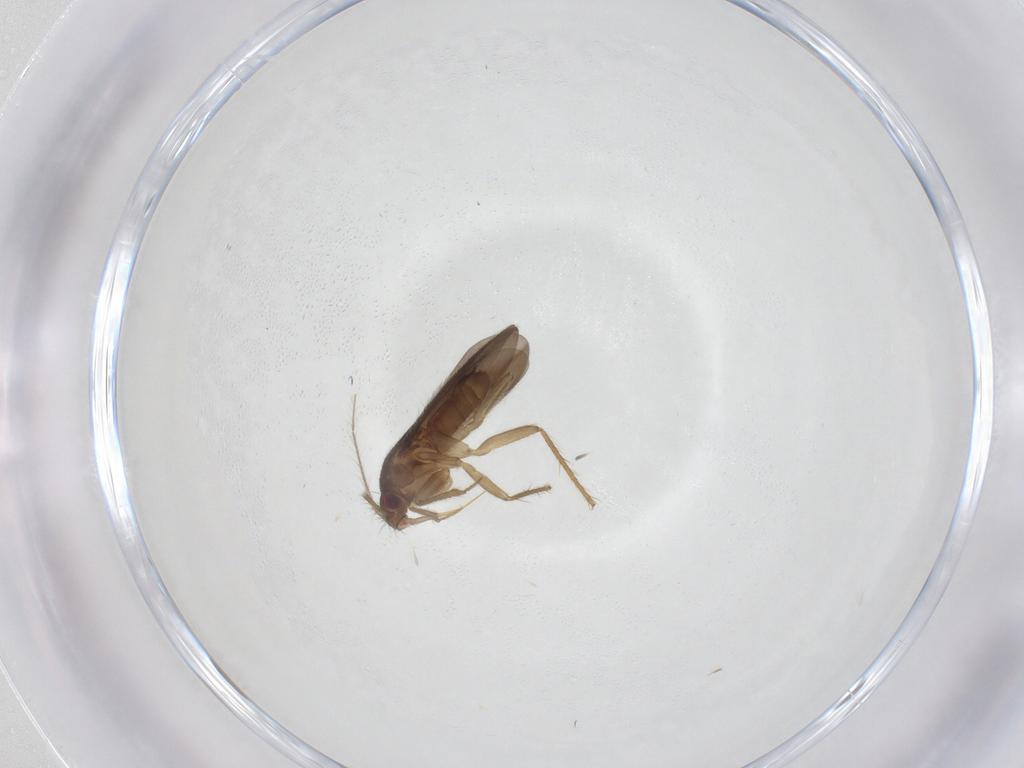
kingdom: Animalia
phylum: Arthropoda
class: Insecta
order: Hemiptera
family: Ceratocombidae
